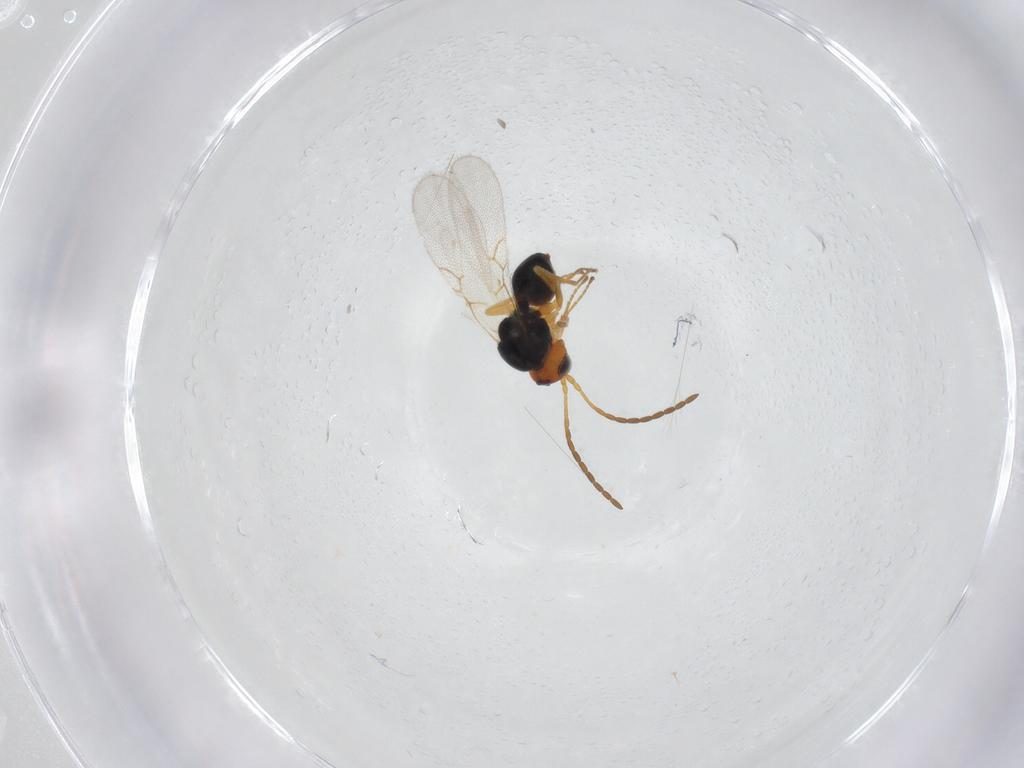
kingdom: Animalia
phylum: Arthropoda
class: Insecta
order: Hymenoptera
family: Figitidae
